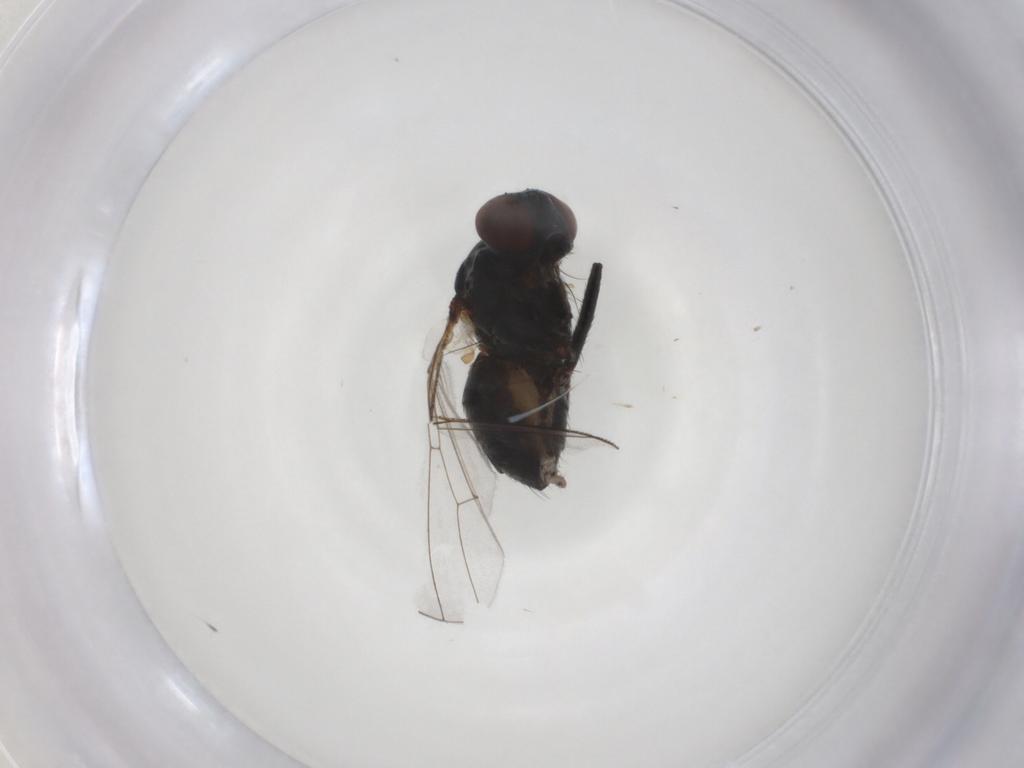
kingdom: Animalia
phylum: Arthropoda
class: Insecta
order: Diptera
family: Muscidae
